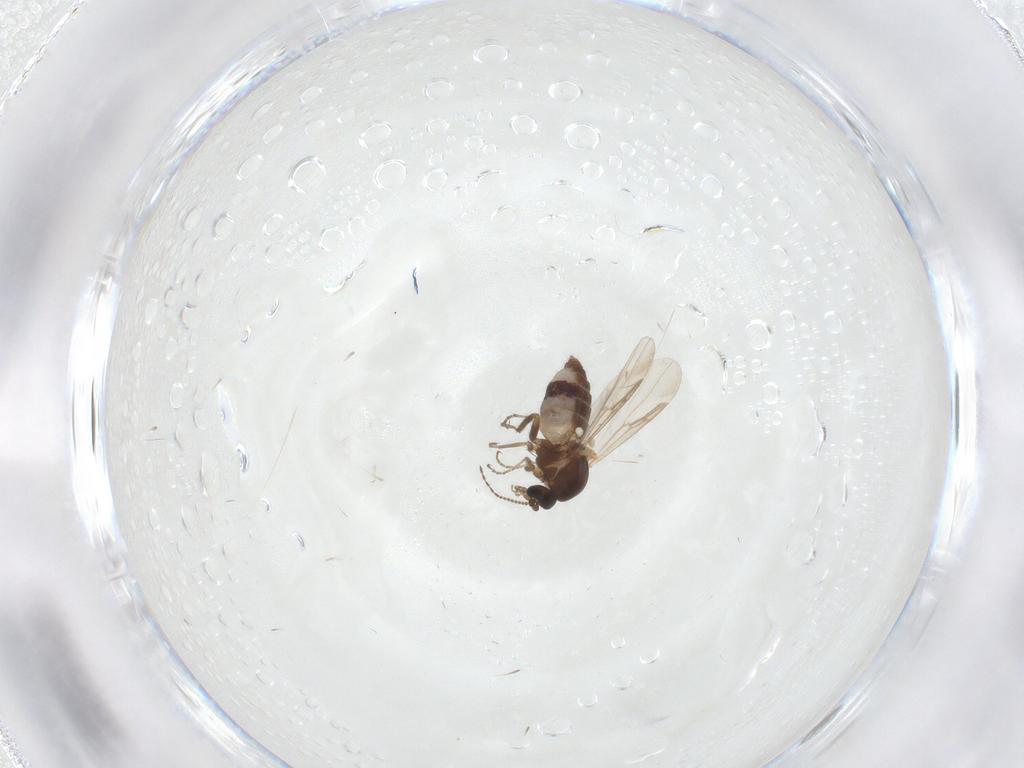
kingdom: Animalia
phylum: Arthropoda
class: Insecta
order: Diptera
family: Ceratopogonidae
